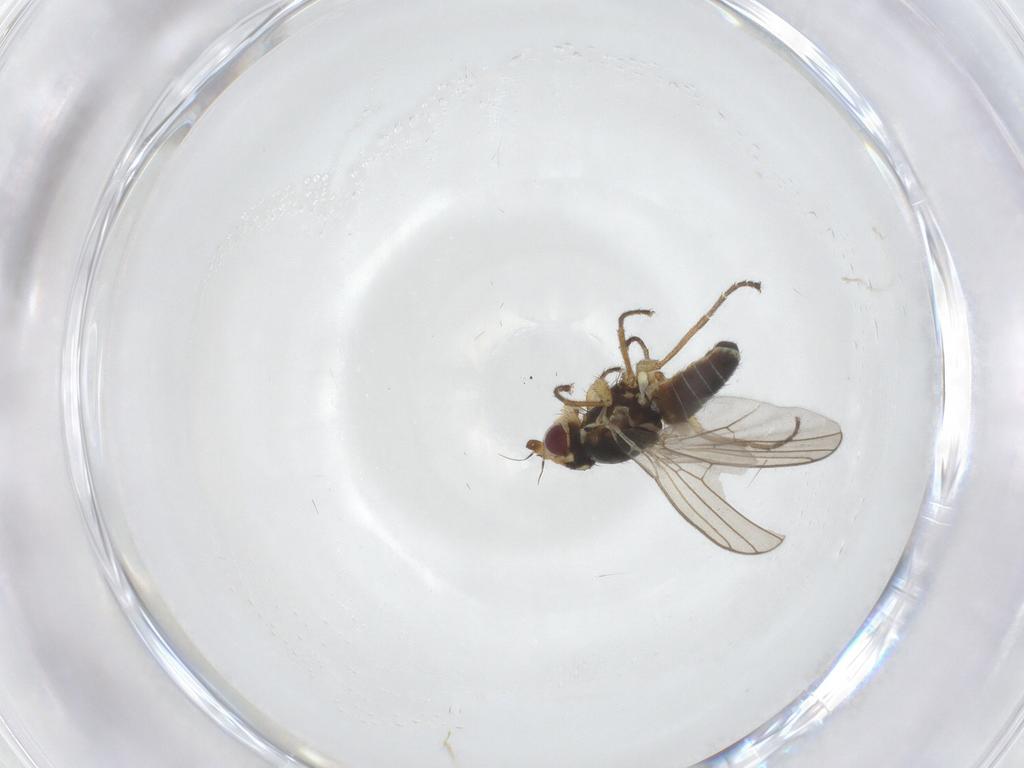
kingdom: Animalia
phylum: Arthropoda
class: Insecta
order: Diptera
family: Agromyzidae
